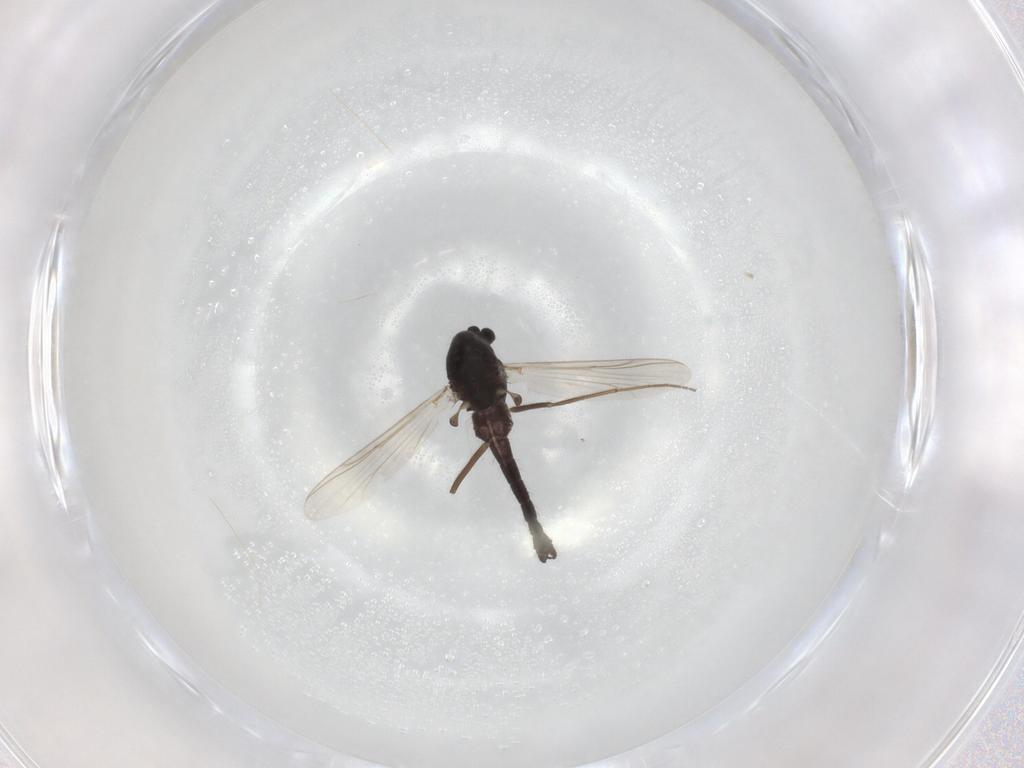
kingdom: Animalia
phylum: Arthropoda
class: Insecta
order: Diptera
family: Chironomidae
